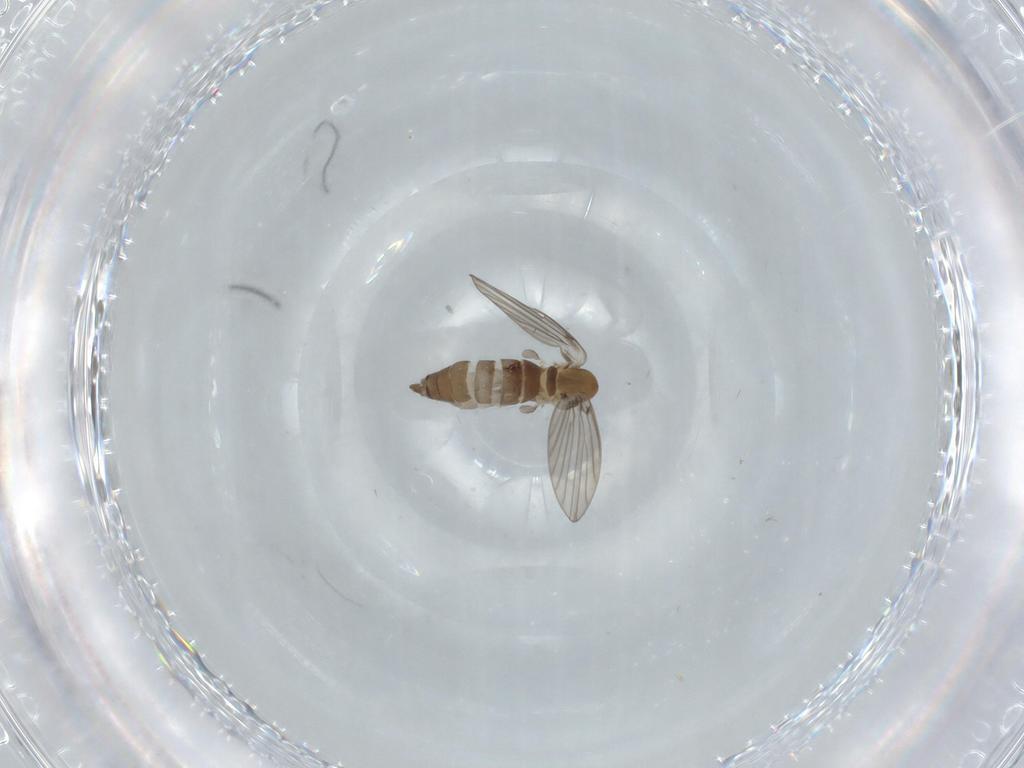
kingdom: Animalia
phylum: Arthropoda
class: Insecta
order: Diptera
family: Psychodidae
